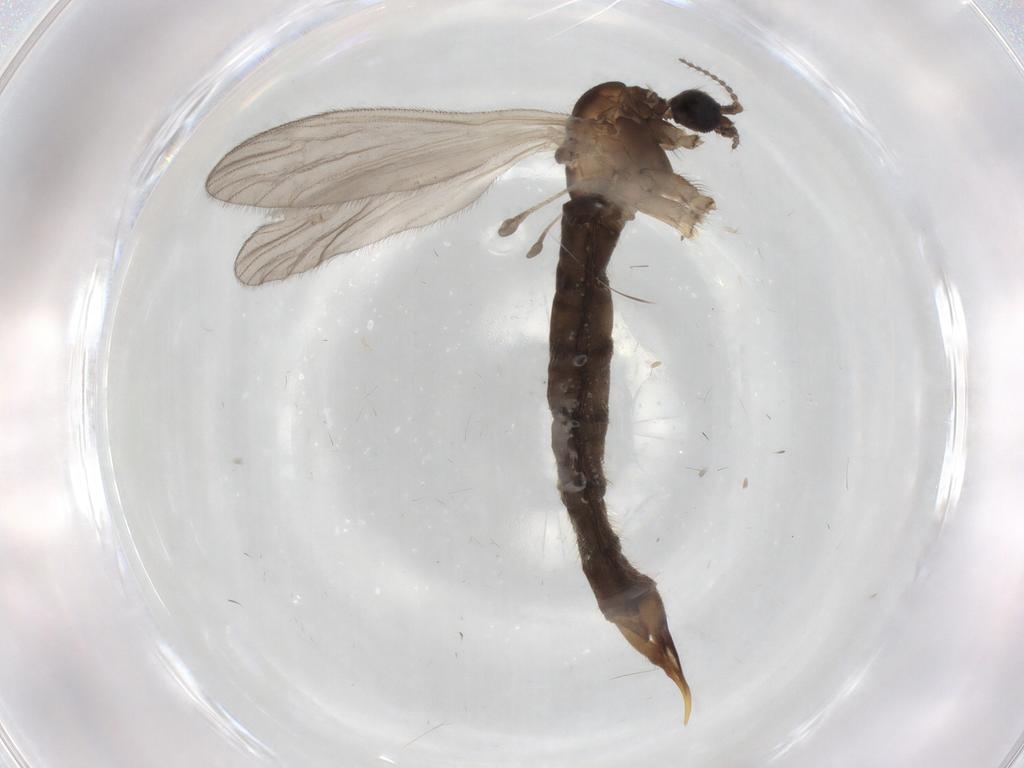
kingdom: Animalia
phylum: Arthropoda
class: Insecta
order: Diptera
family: Limoniidae
